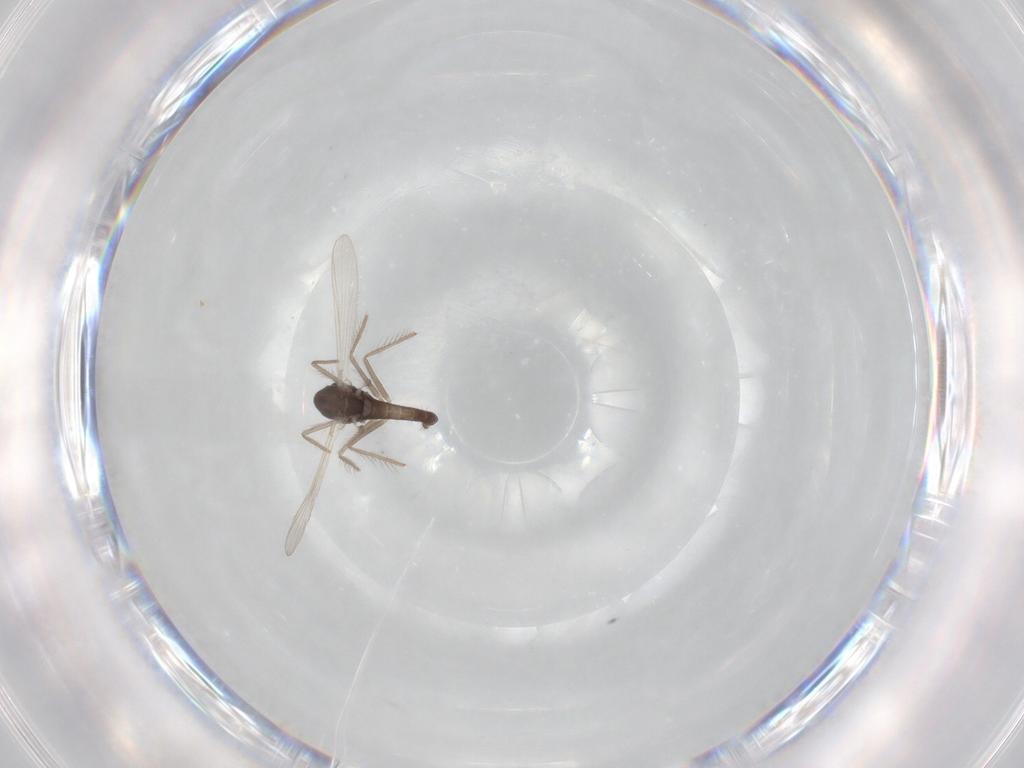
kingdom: Animalia
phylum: Arthropoda
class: Insecta
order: Diptera
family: Chironomidae
